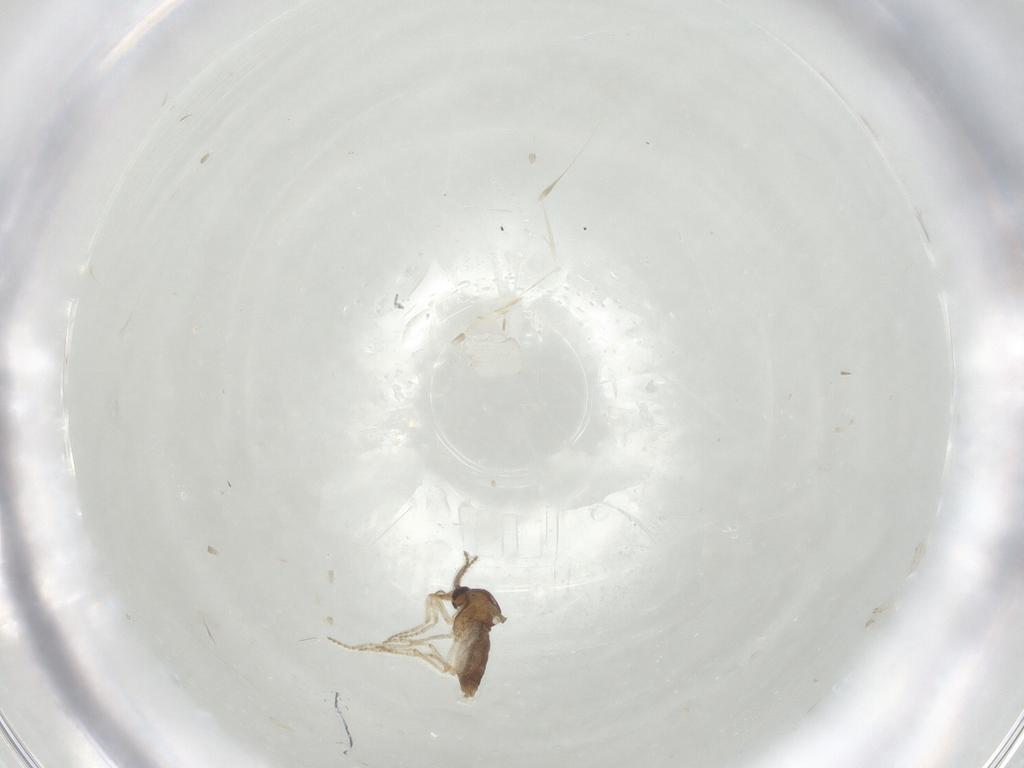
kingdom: Animalia
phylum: Arthropoda
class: Insecta
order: Diptera
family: Ceratopogonidae
